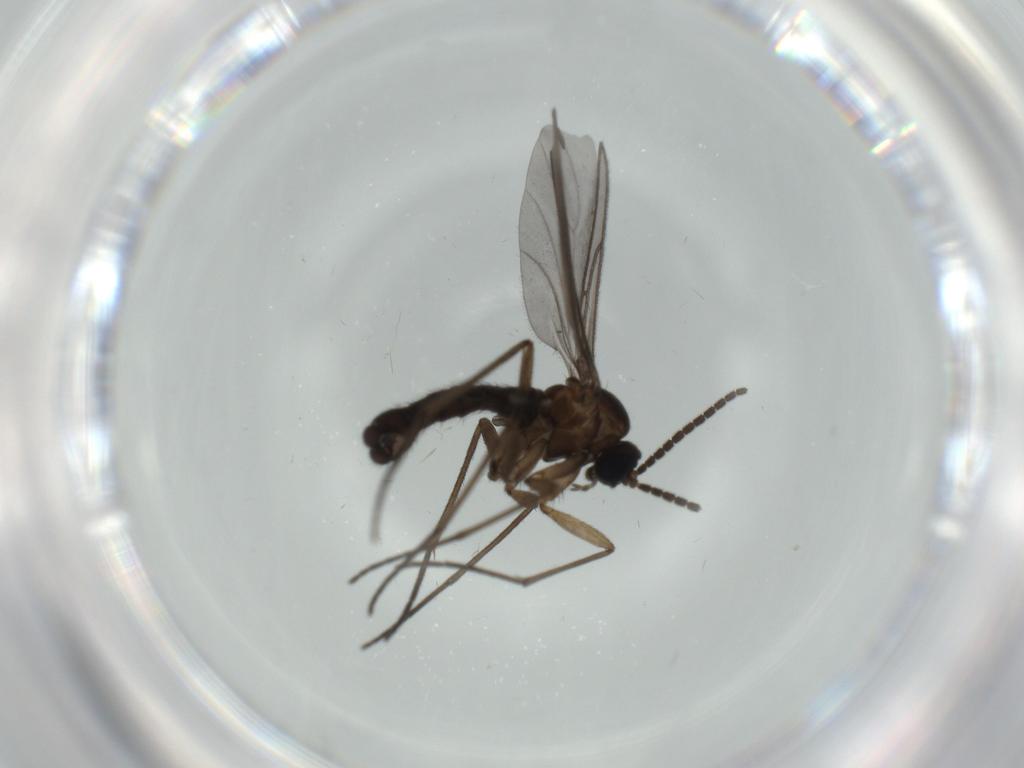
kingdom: Animalia
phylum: Arthropoda
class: Insecta
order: Diptera
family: Sciaridae
